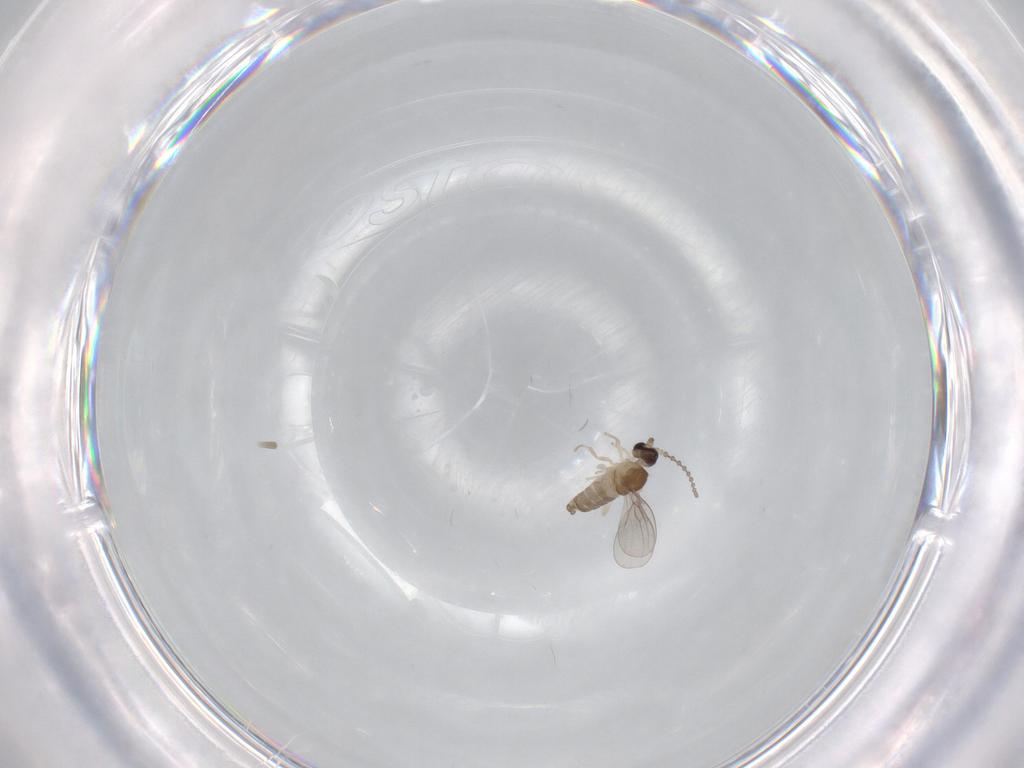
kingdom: Animalia
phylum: Arthropoda
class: Insecta
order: Diptera
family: Cecidomyiidae
